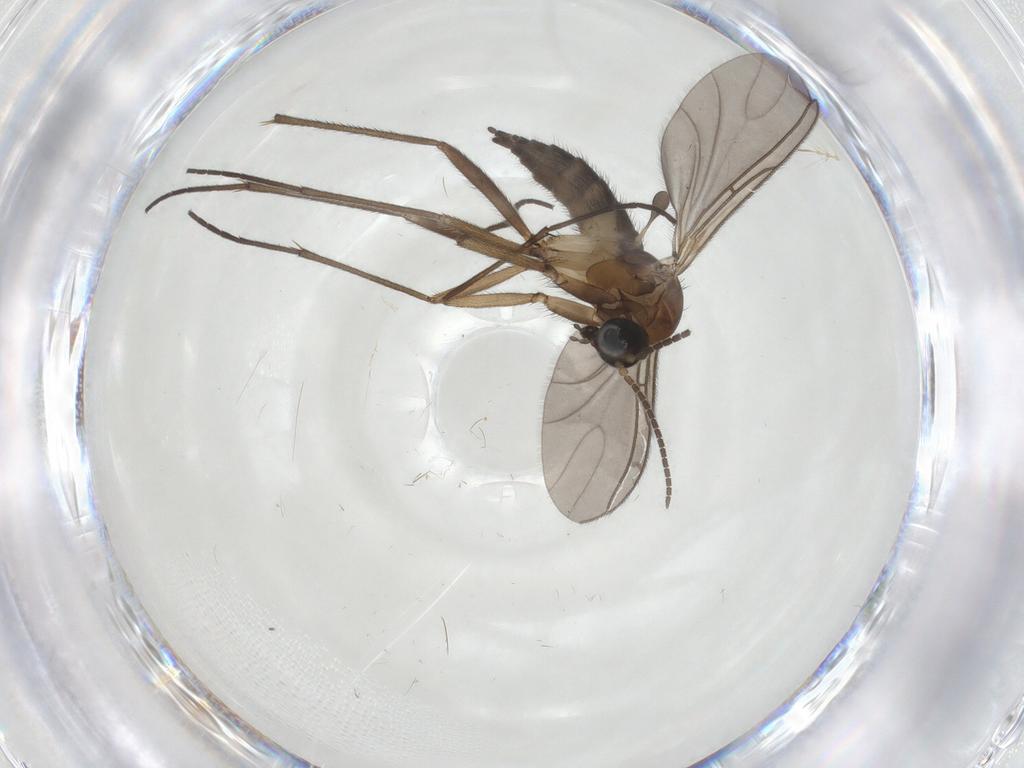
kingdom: Animalia
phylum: Arthropoda
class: Insecta
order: Diptera
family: Sciaridae
